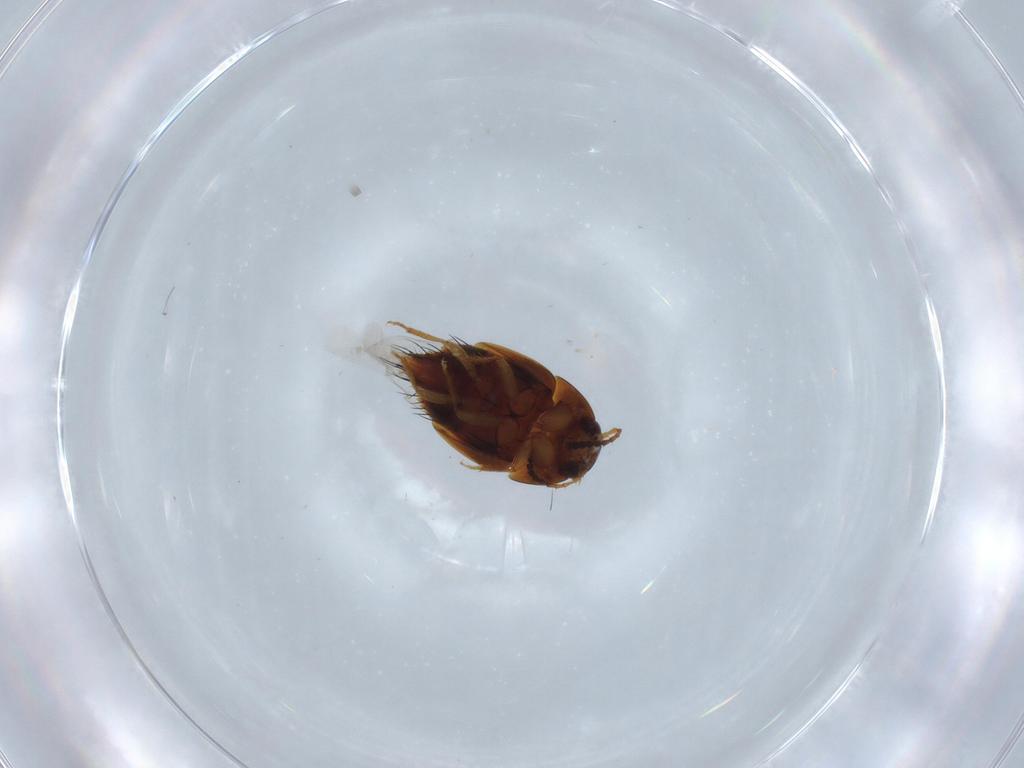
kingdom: Animalia
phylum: Arthropoda
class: Insecta
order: Coleoptera
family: Staphylinidae
